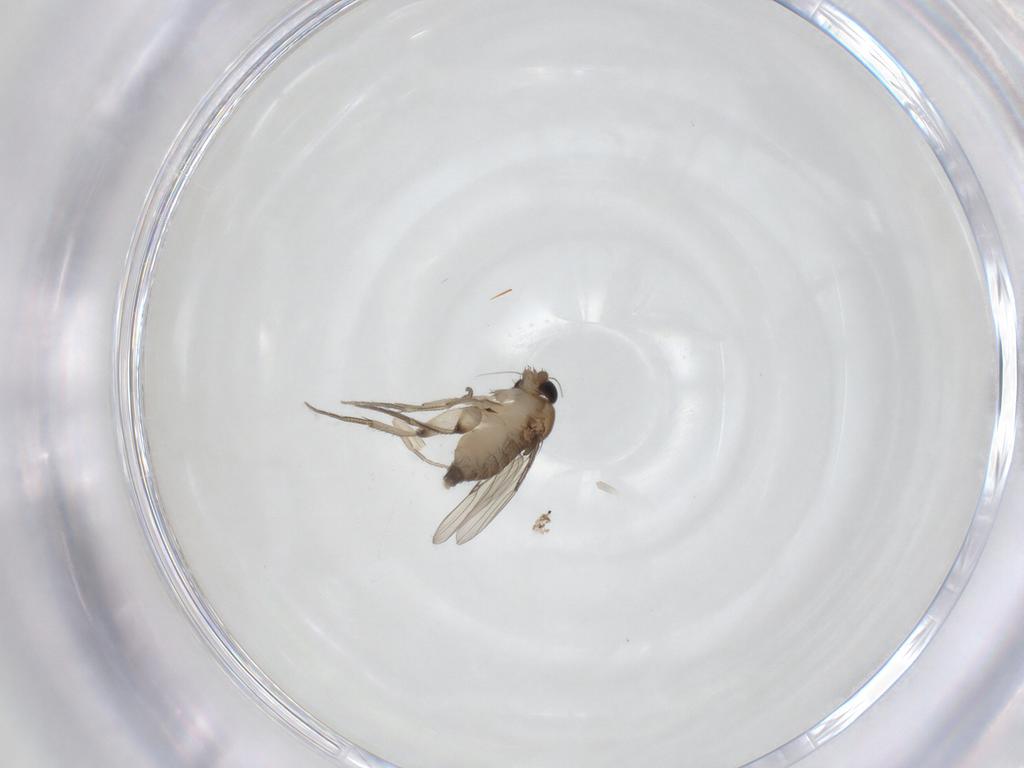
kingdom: Animalia
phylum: Arthropoda
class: Insecta
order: Diptera
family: Phoridae
